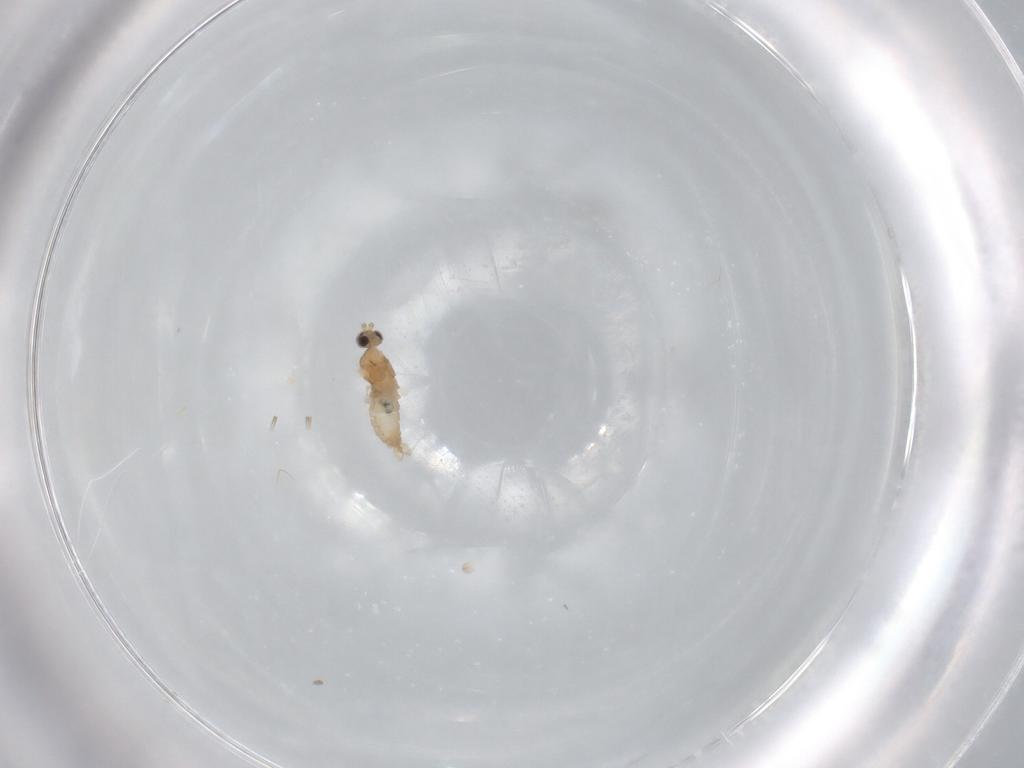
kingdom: Animalia
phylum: Arthropoda
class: Insecta
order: Diptera
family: Cecidomyiidae
